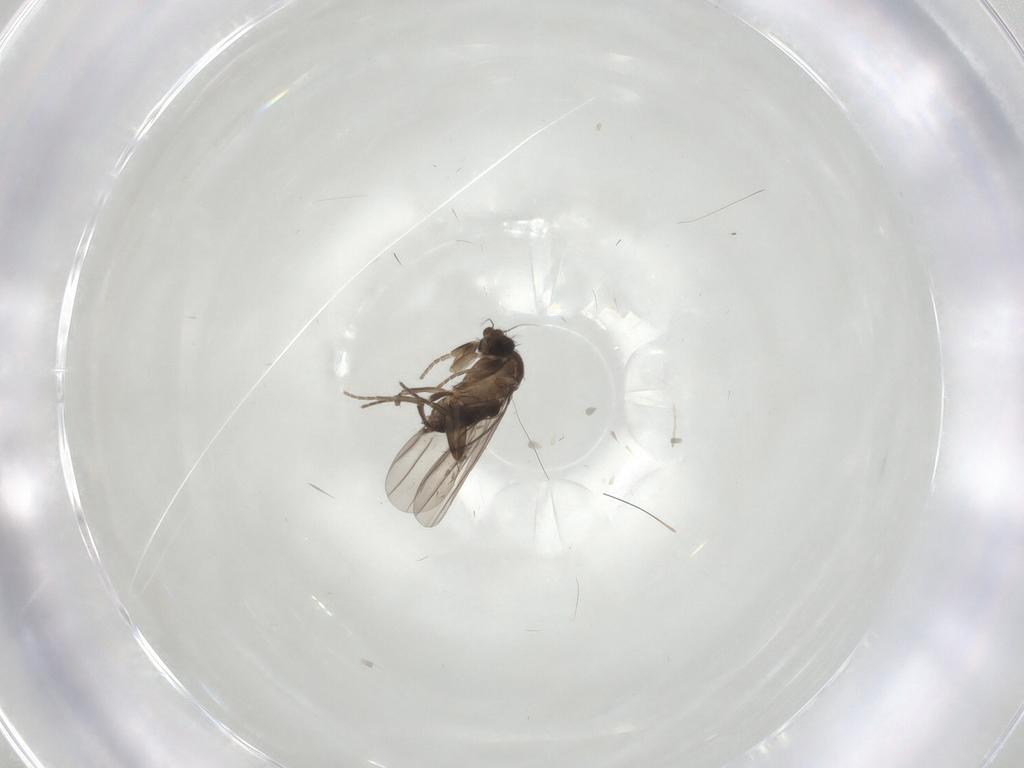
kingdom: Animalia
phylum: Arthropoda
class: Insecta
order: Diptera
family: Chironomidae
